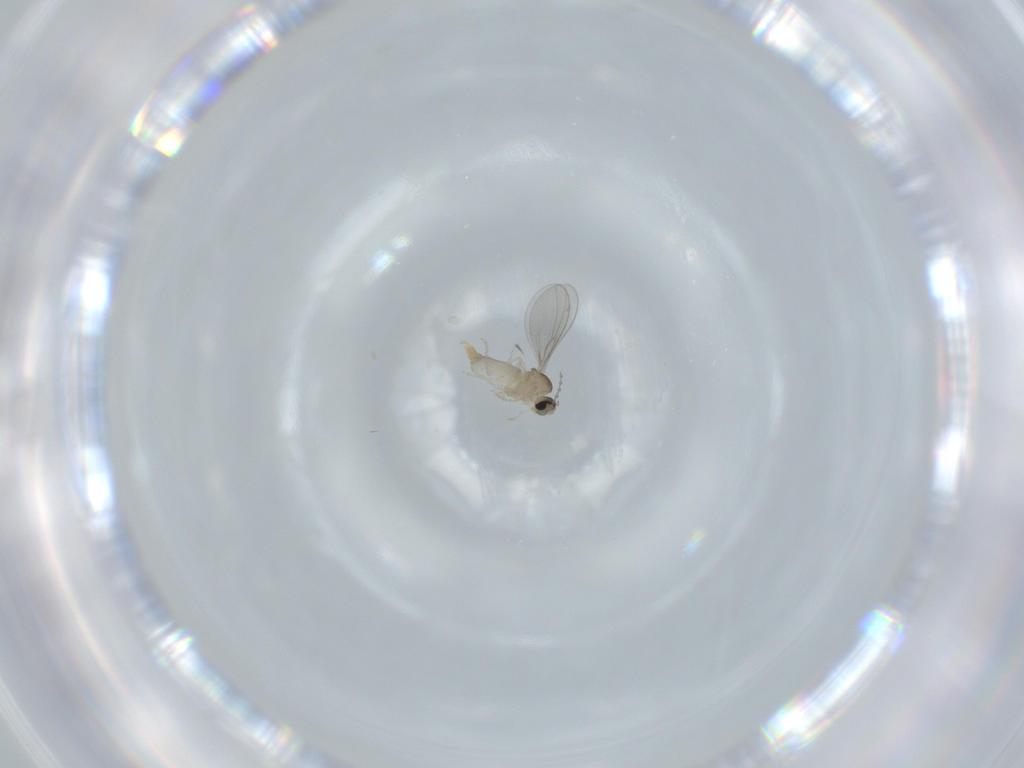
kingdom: Animalia
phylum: Arthropoda
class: Insecta
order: Diptera
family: Cecidomyiidae
